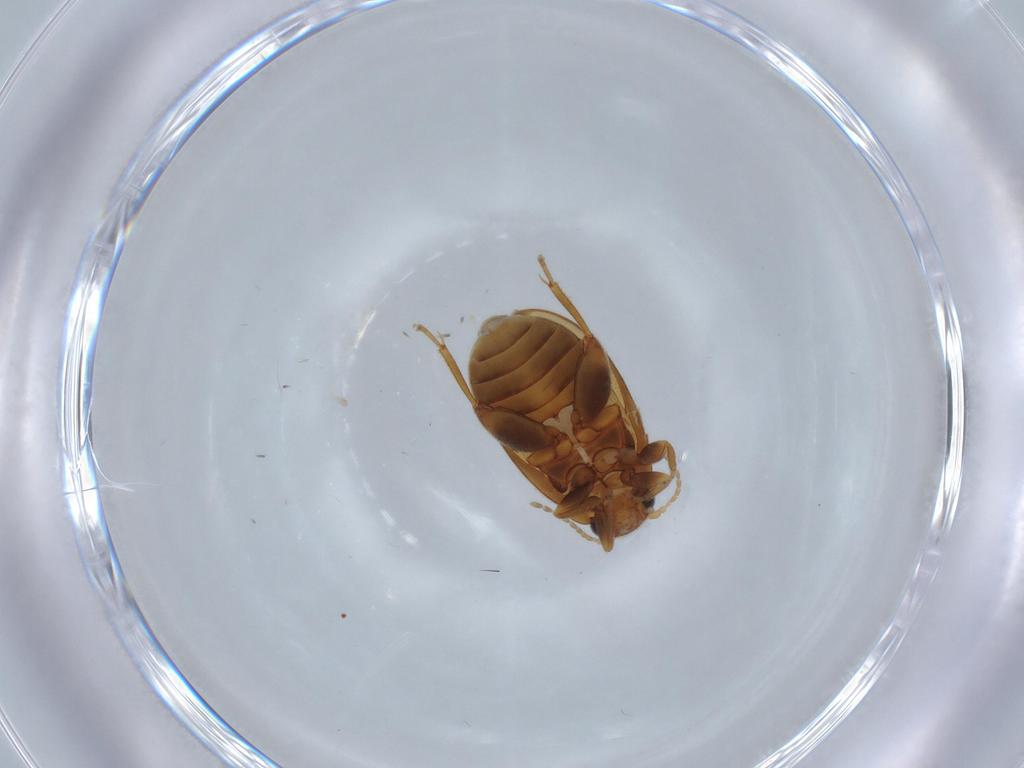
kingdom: Animalia
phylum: Arthropoda
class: Insecta
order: Coleoptera
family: Scirtidae
